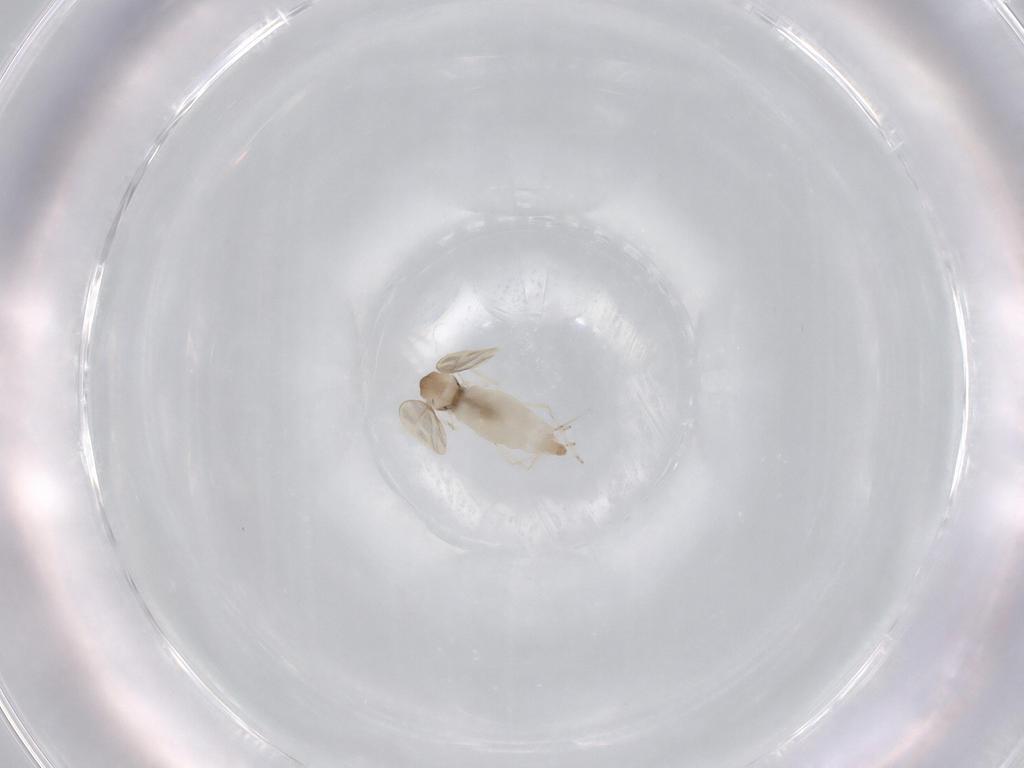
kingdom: Animalia
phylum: Arthropoda
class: Insecta
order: Diptera
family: Cecidomyiidae
